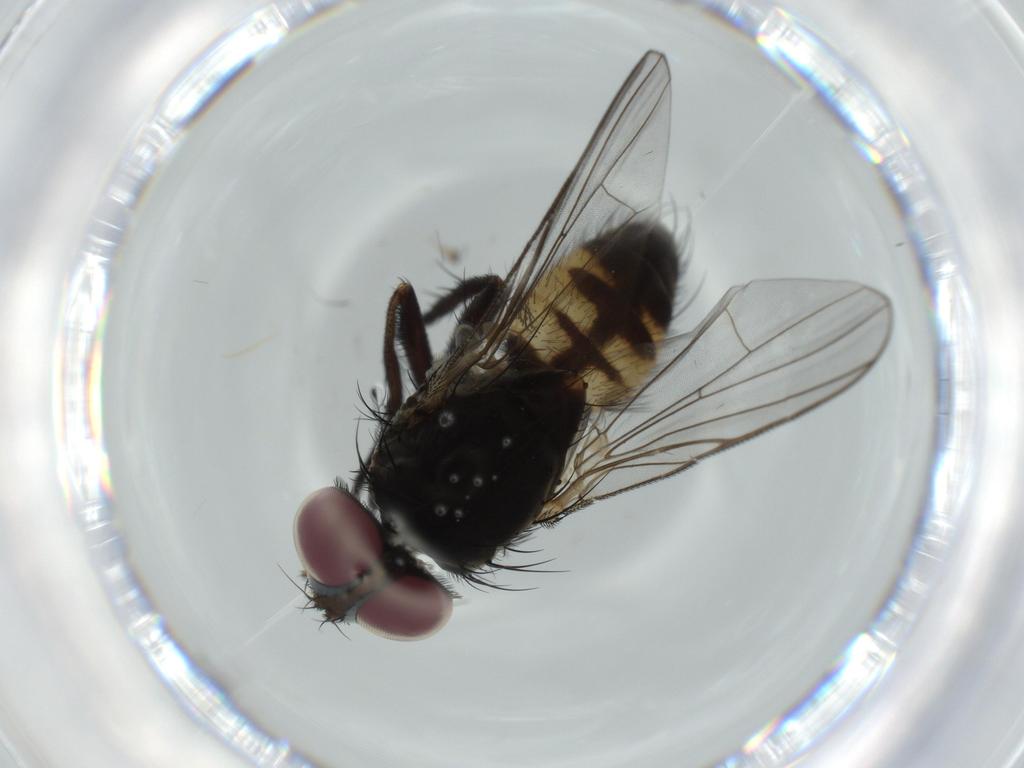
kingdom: Animalia
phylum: Arthropoda
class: Insecta
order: Diptera
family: Fannia
